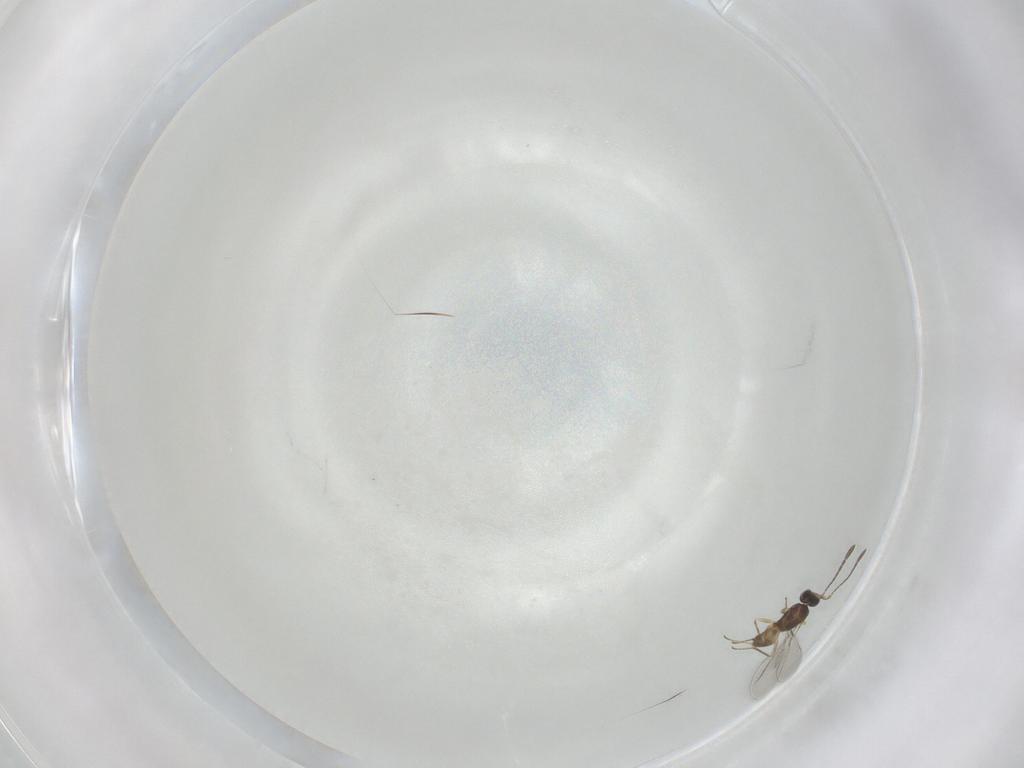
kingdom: Animalia
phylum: Arthropoda
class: Insecta
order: Hymenoptera
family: Mymaridae
